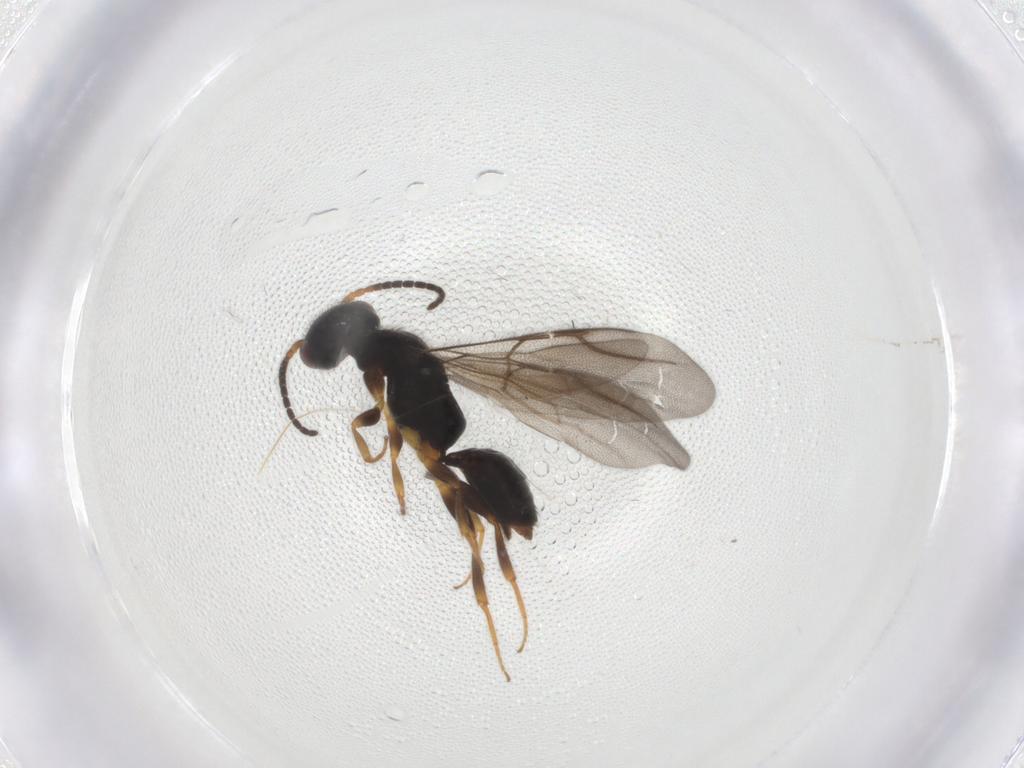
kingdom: Animalia
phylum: Arthropoda
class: Insecta
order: Hymenoptera
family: Bethylidae
